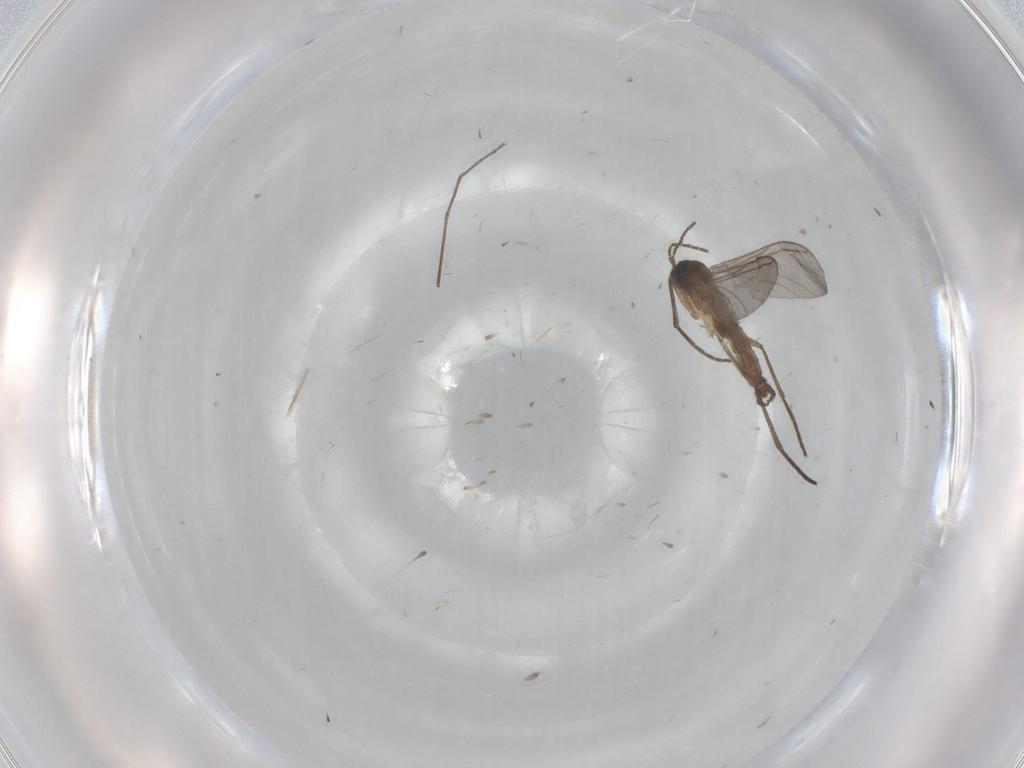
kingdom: Animalia
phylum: Arthropoda
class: Insecta
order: Diptera
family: Sciaridae
